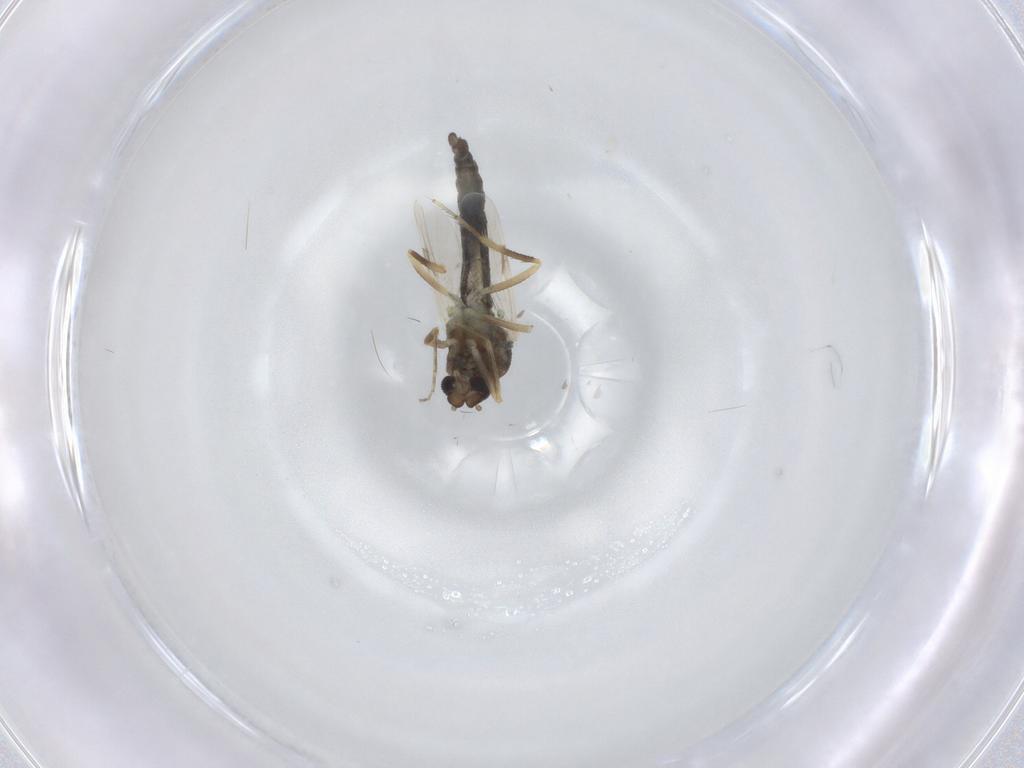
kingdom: Animalia
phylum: Arthropoda
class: Insecta
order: Diptera
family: Phoridae
